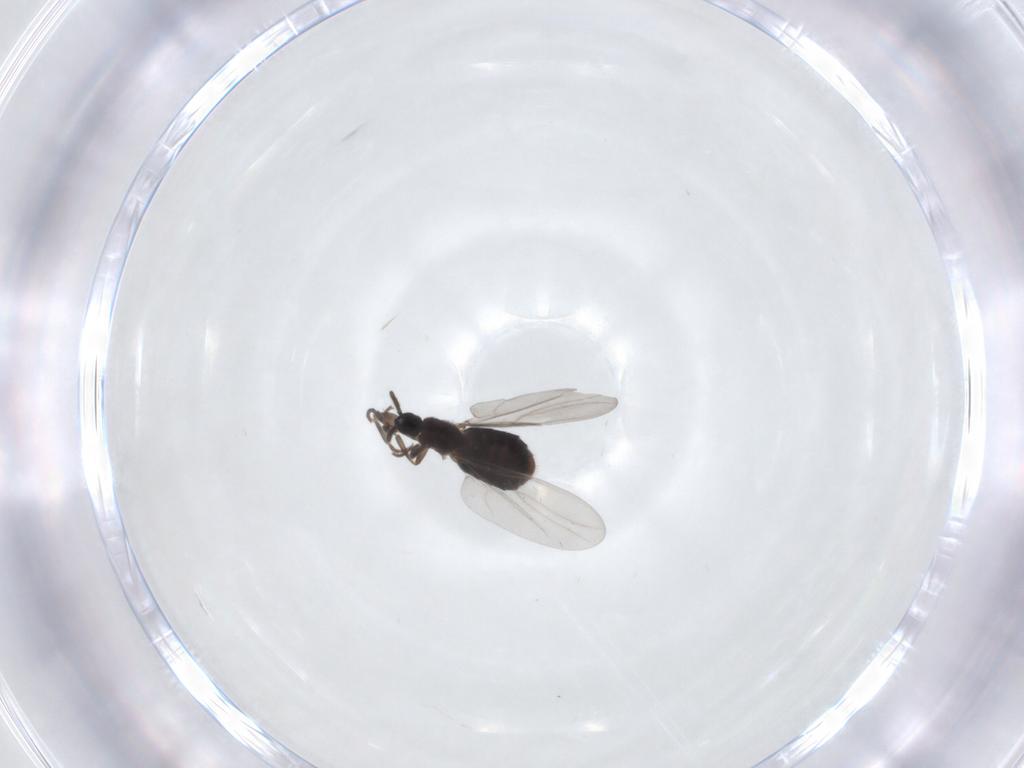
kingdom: Animalia
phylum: Arthropoda
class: Insecta
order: Diptera
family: Scatopsidae
